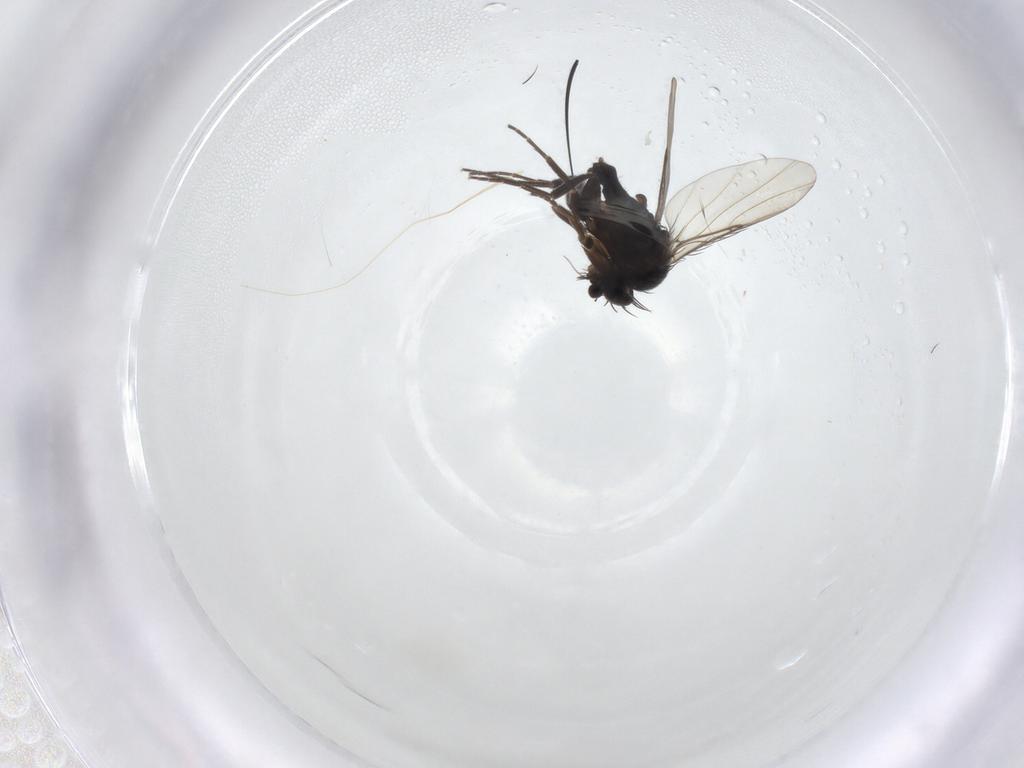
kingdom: Animalia
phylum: Arthropoda
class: Insecta
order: Diptera
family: Phoridae
